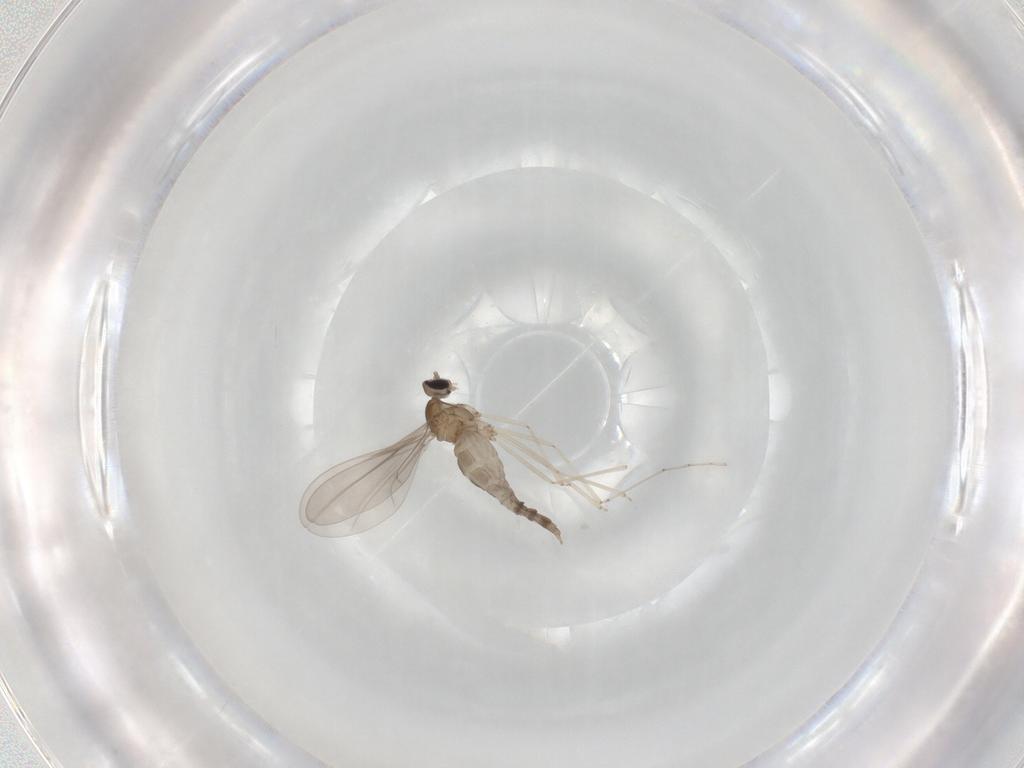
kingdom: Animalia
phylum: Arthropoda
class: Insecta
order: Diptera
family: Cecidomyiidae
